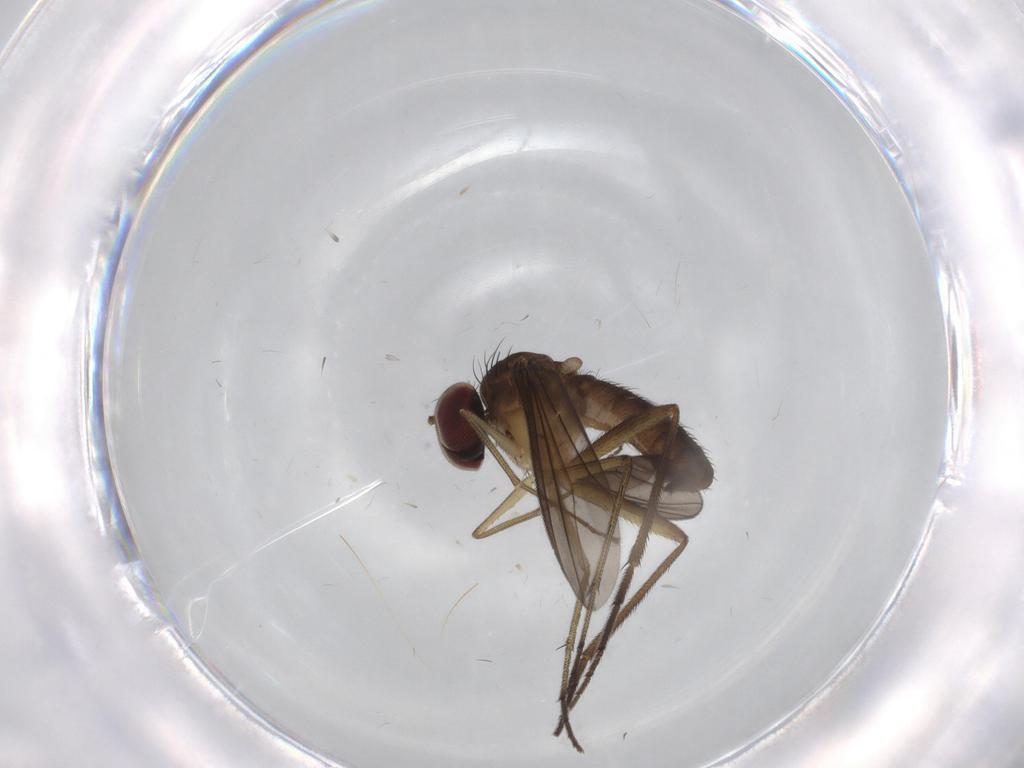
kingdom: Animalia
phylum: Arthropoda
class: Insecta
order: Diptera
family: Dolichopodidae
